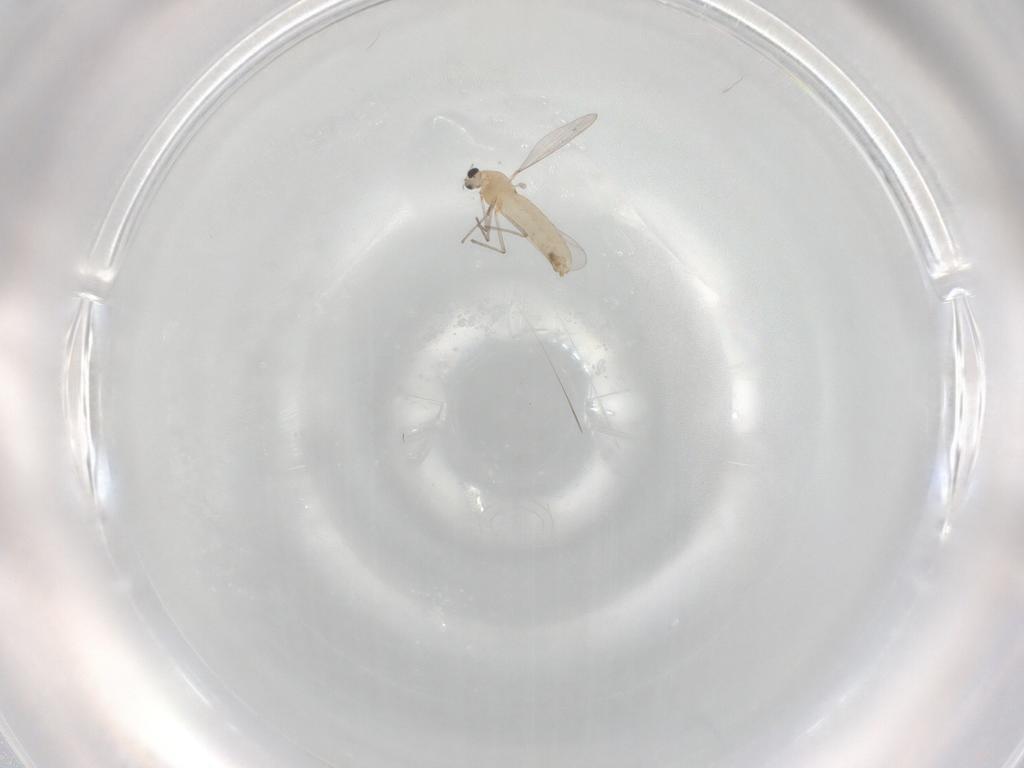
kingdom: Animalia
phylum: Arthropoda
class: Insecta
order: Diptera
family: Chironomidae
